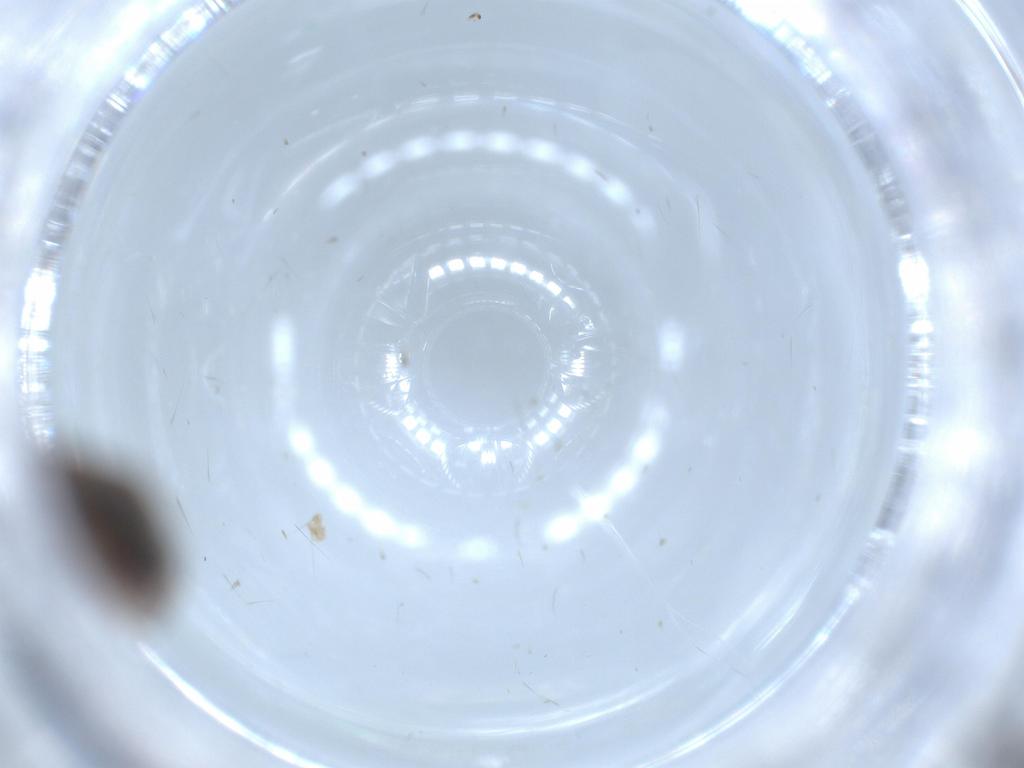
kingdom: Animalia
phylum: Arthropoda
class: Insecta
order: Lepidoptera
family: Tineidae
